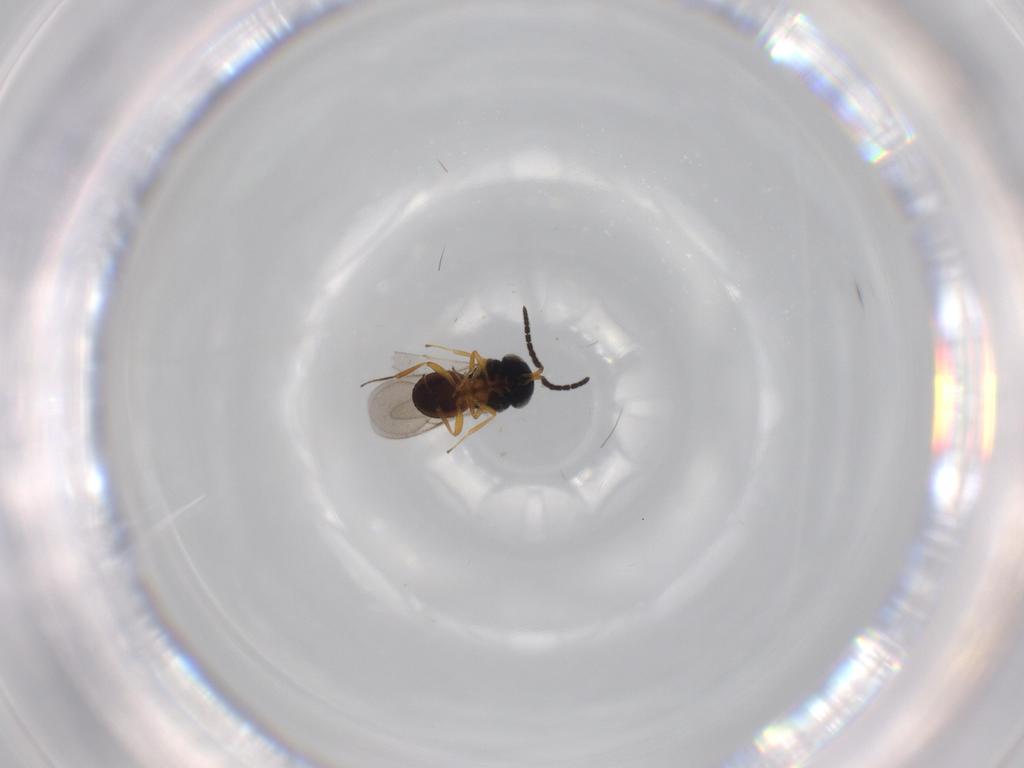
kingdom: Animalia
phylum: Arthropoda
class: Insecta
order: Coleoptera
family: Curculionidae
